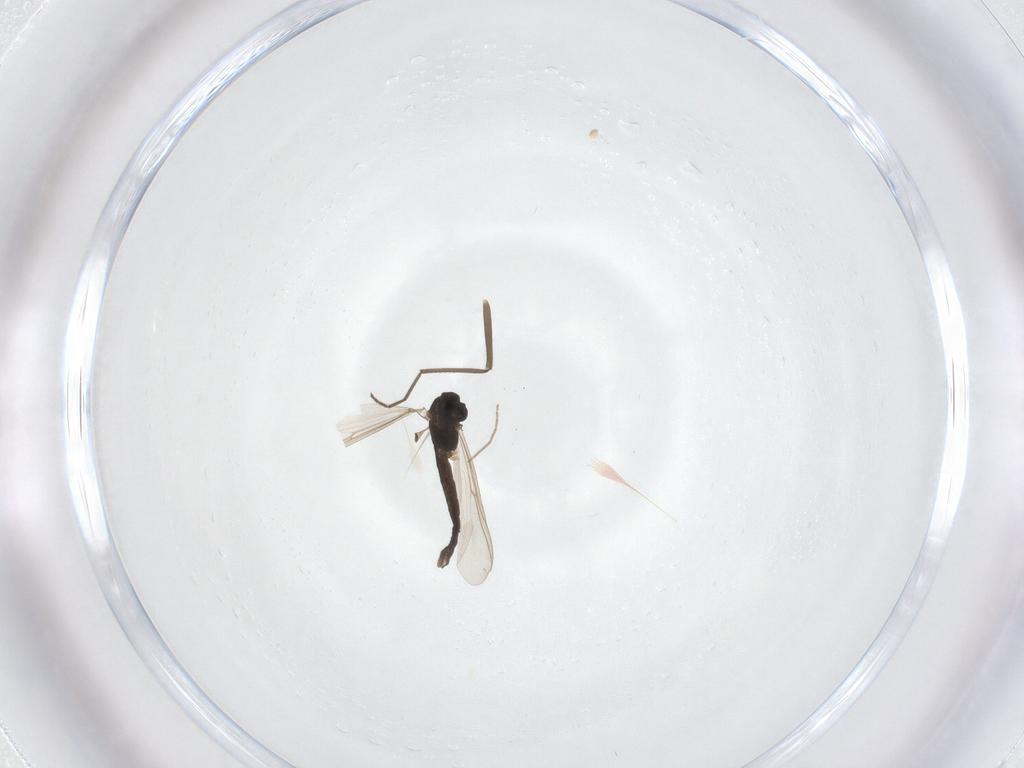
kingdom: Animalia
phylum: Arthropoda
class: Insecta
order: Diptera
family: Chironomidae
